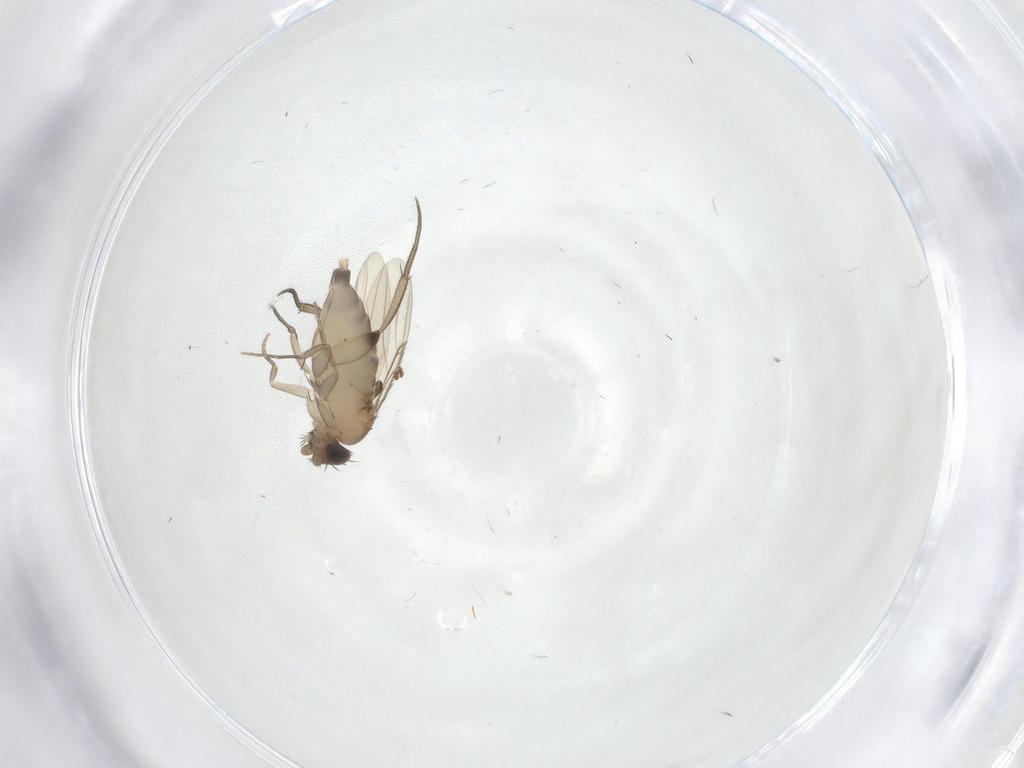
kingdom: Animalia
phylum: Arthropoda
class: Insecta
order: Diptera
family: Phoridae
